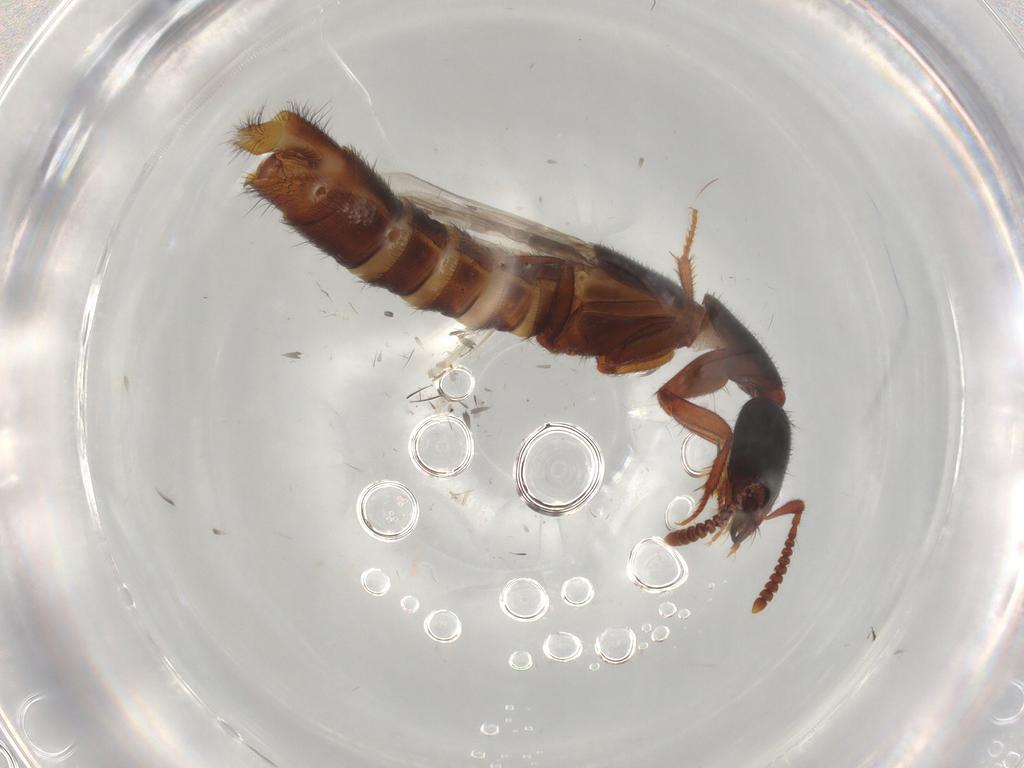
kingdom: Animalia
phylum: Arthropoda
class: Insecta
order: Coleoptera
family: Endomychidae
